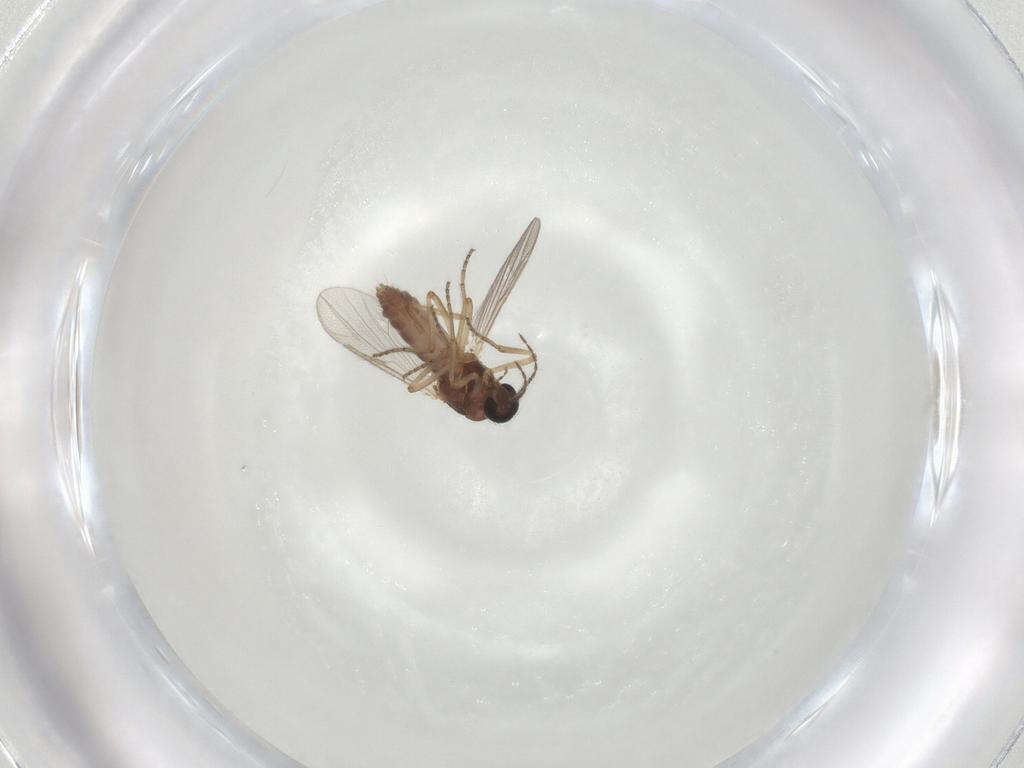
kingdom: Animalia
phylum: Arthropoda
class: Insecta
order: Diptera
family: Ceratopogonidae
